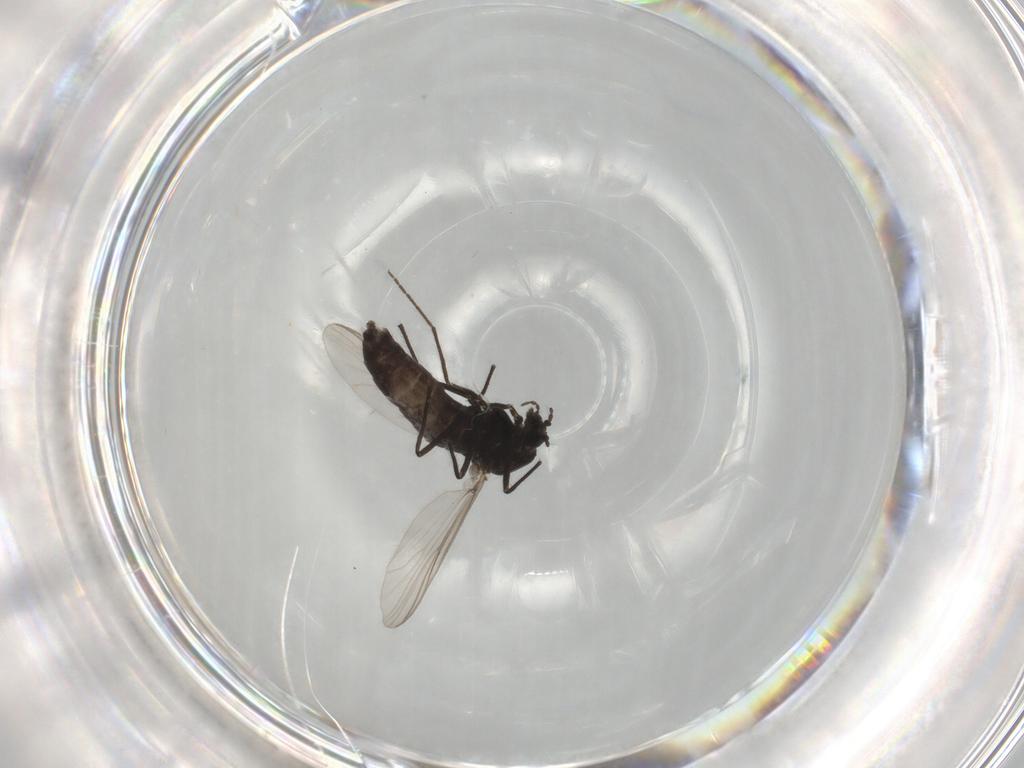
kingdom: Animalia
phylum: Arthropoda
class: Insecta
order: Diptera
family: Chironomidae
